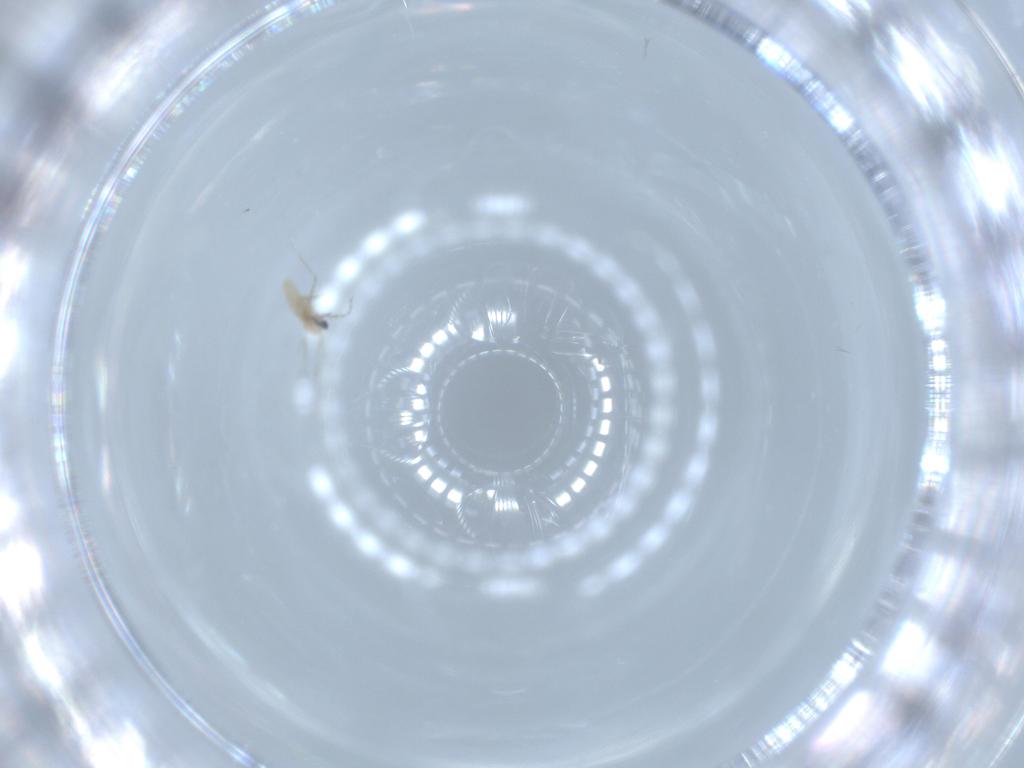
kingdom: Animalia
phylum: Arthropoda
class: Insecta
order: Diptera
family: Cecidomyiidae
